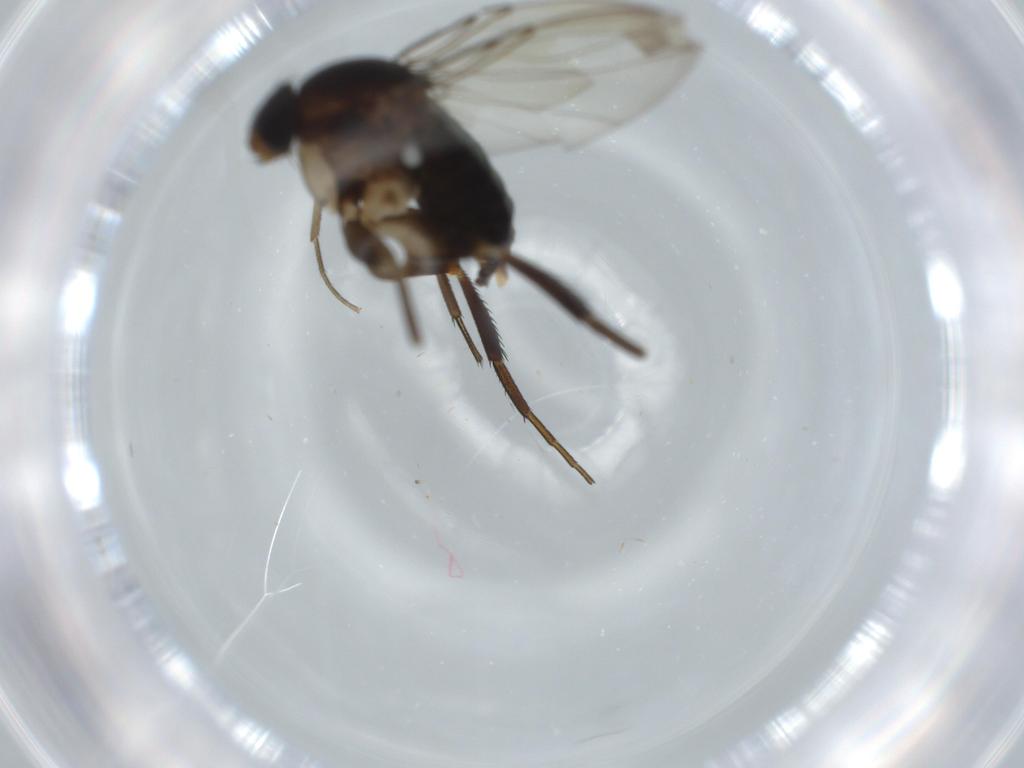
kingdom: Animalia
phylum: Arthropoda
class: Insecta
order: Diptera
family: Phoridae
